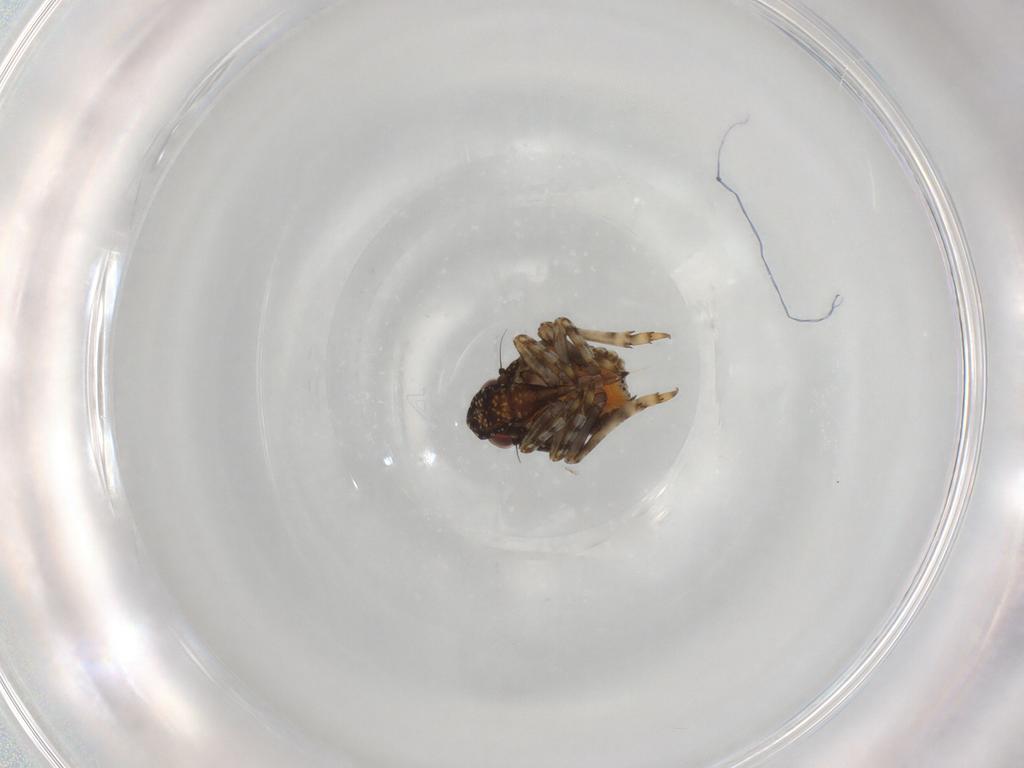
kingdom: Animalia
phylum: Arthropoda
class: Insecta
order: Hemiptera
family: Nogodinidae
